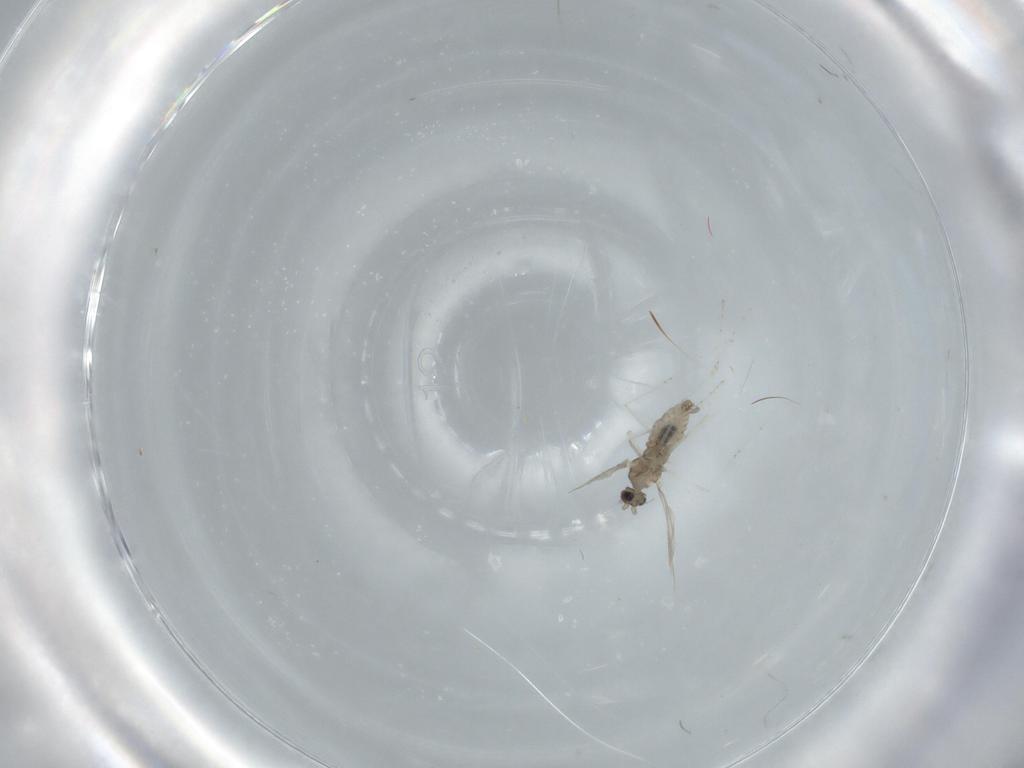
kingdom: Animalia
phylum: Arthropoda
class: Insecta
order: Diptera
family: Cecidomyiidae
